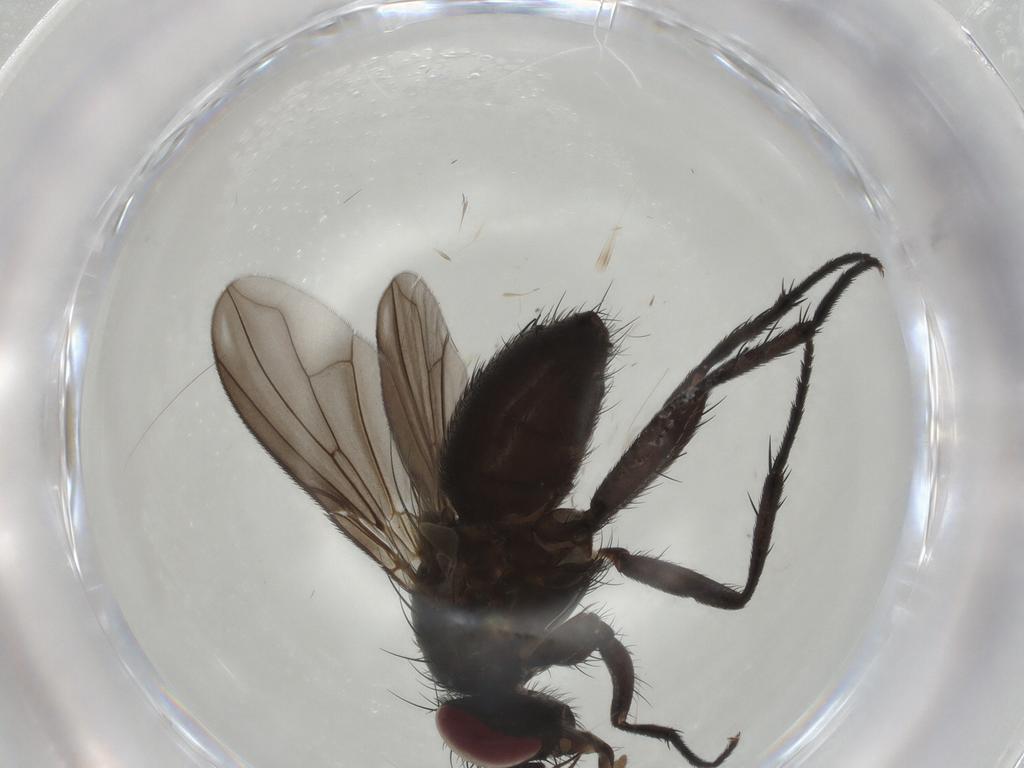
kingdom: Animalia
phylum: Arthropoda
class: Insecta
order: Diptera
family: Calliphoridae
